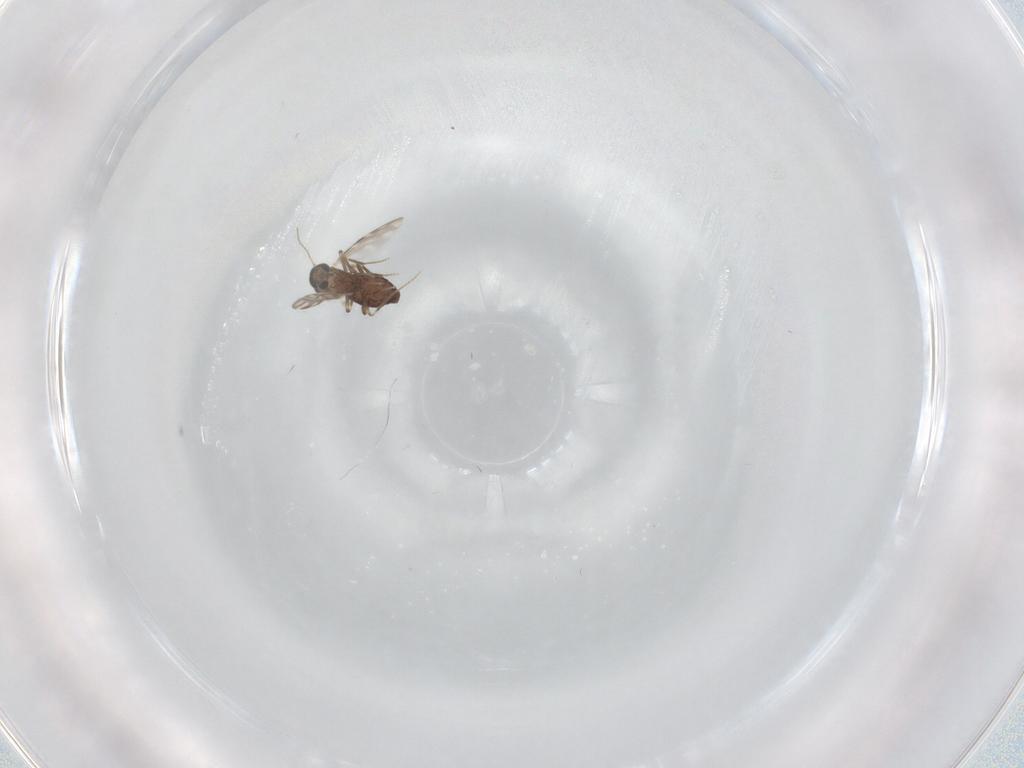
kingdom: Animalia
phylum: Arthropoda
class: Insecta
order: Diptera
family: Ceratopogonidae
